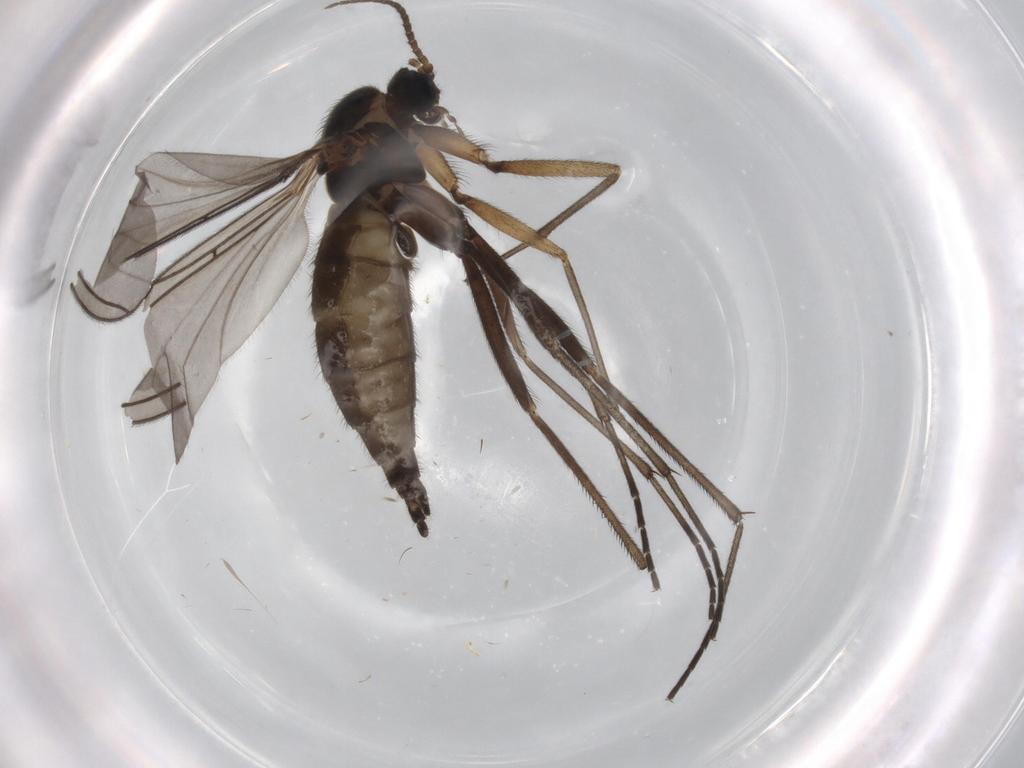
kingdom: Animalia
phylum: Arthropoda
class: Insecta
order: Diptera
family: Sciaridae
